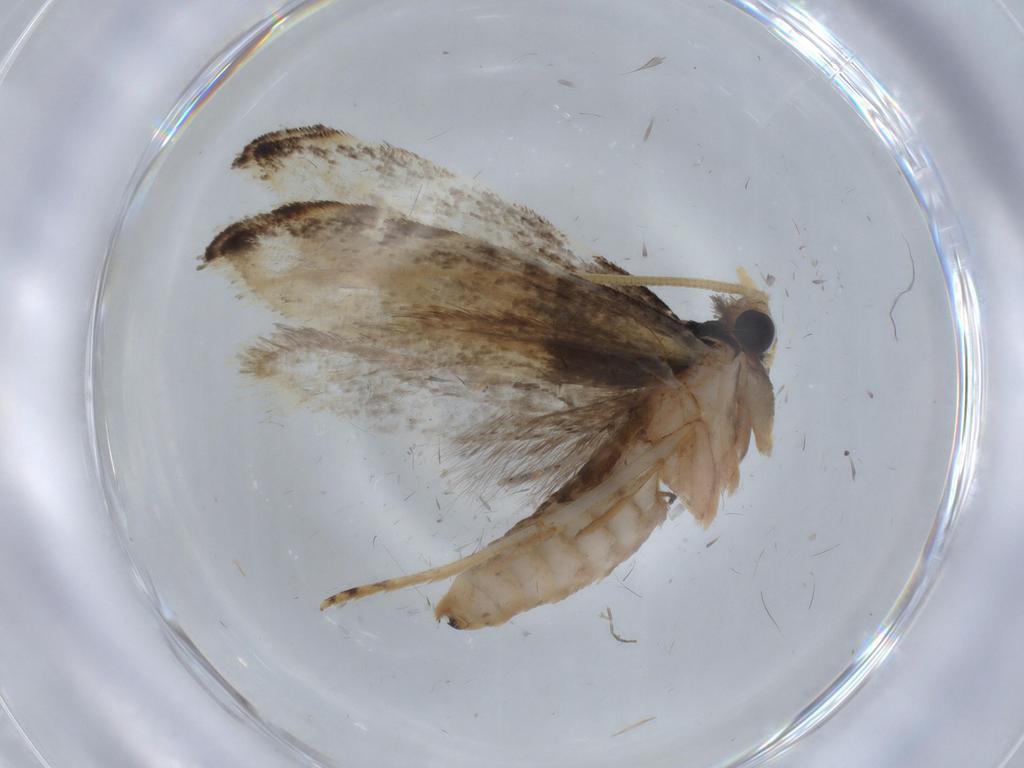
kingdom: Animalia
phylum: Arthropoda
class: Insecta
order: Lepidoptera
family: Tineidae
